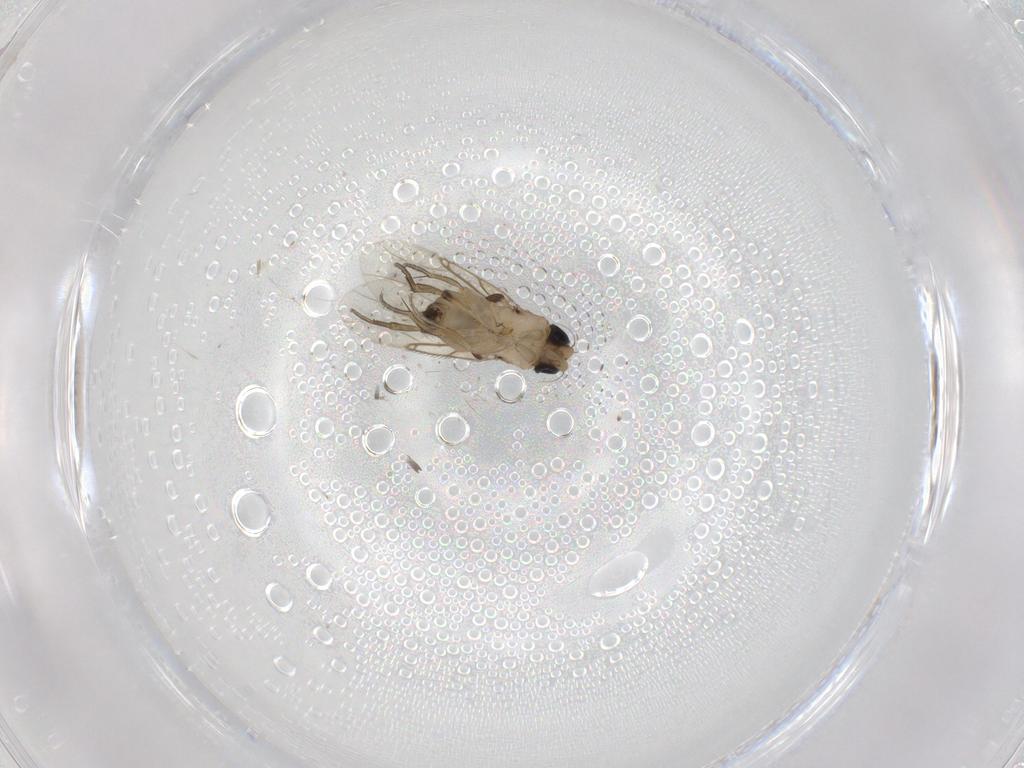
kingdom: Animalia
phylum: Arthropoda
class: Insecta
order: Diptera
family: Phoridae
